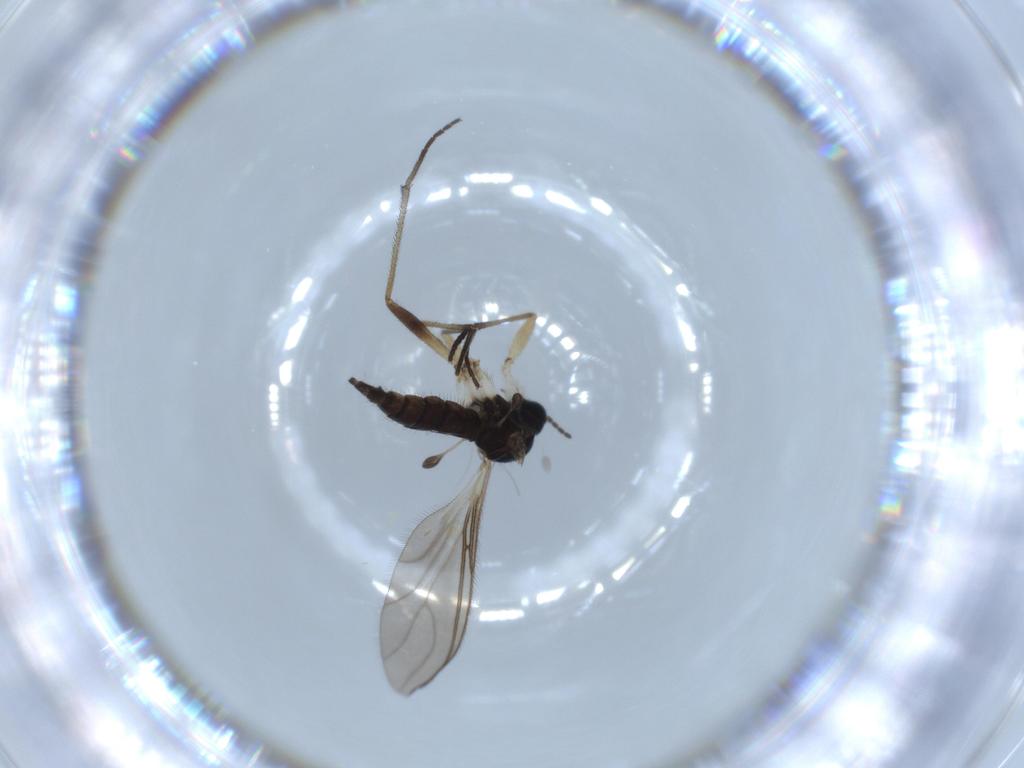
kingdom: Animalia
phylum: Arthropoda
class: Insecta
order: Diptera
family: Sciaridae
